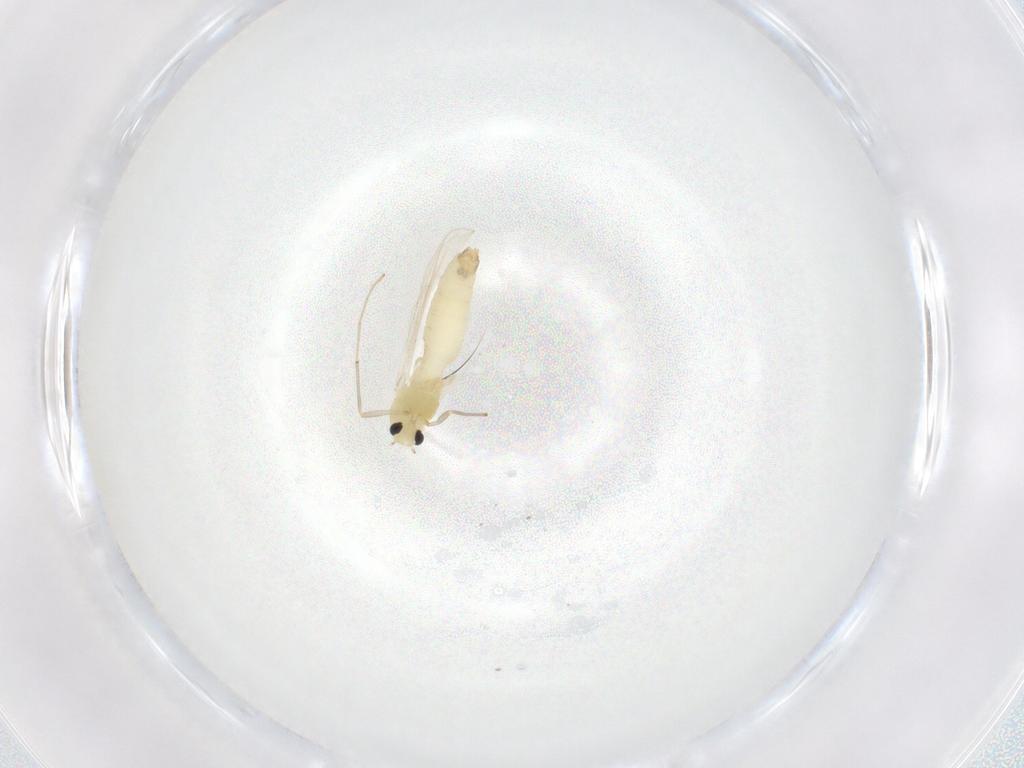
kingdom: Animalia
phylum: Arthropoda
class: Insecta
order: Diptera
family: Chironomidae
